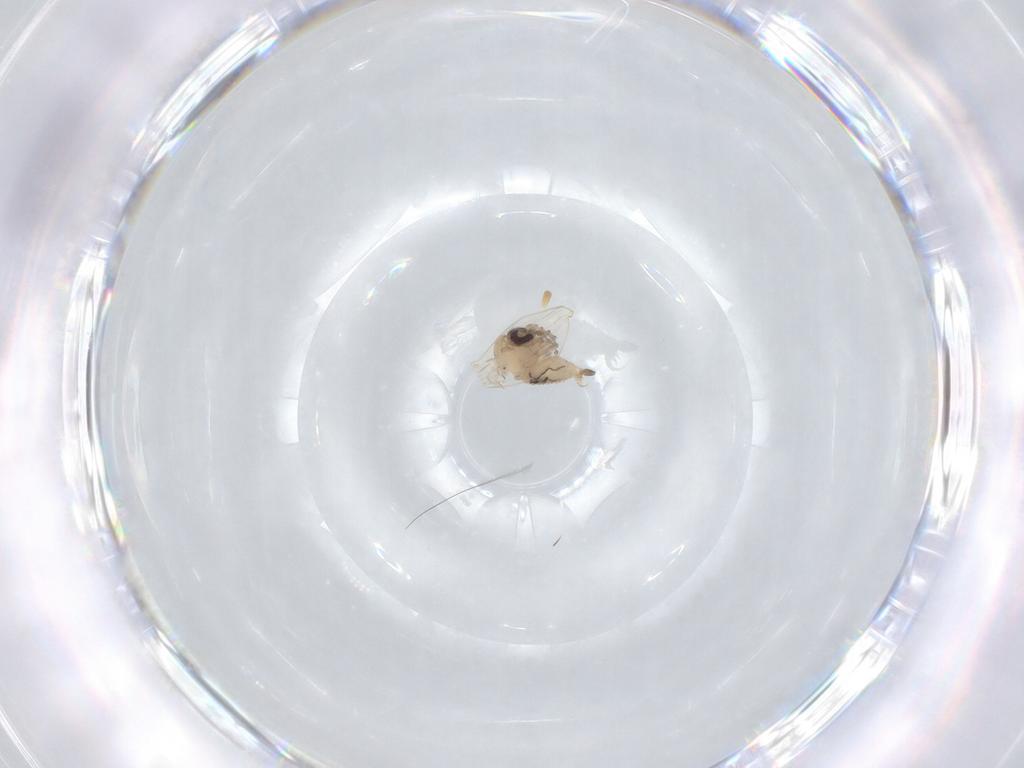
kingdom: Animalia
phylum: Arthropoda
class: Insecta
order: Diptera
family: Psychodidae
